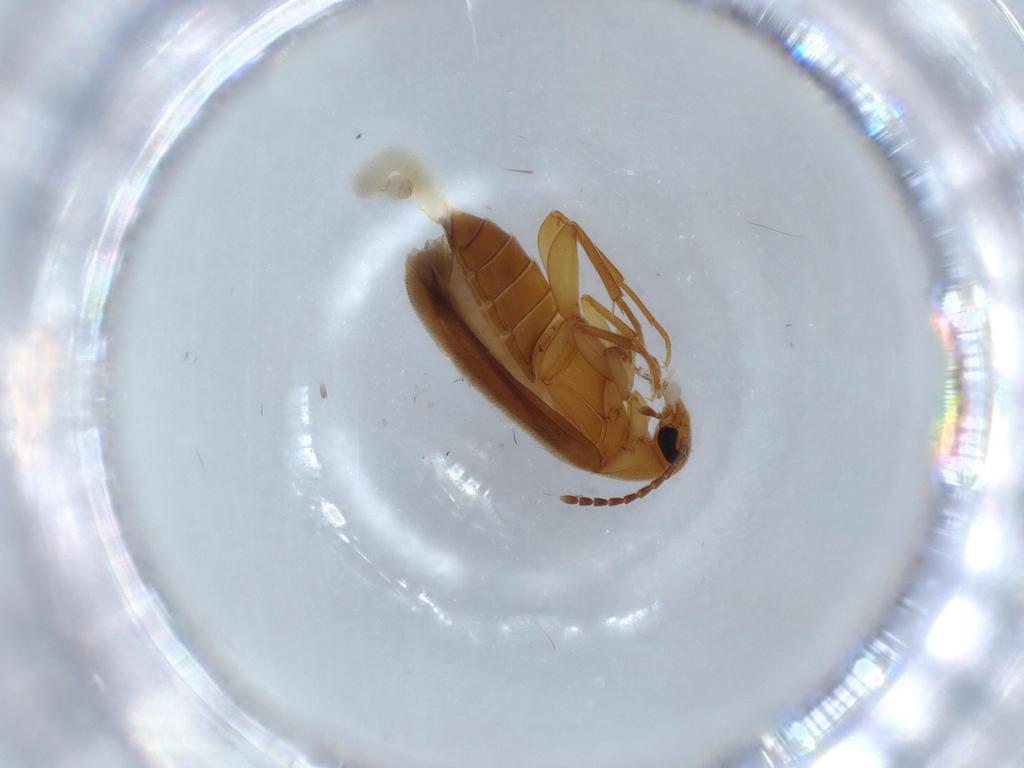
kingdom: Animalia
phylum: Arthropoda
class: Insecta
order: Coleoptera
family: Scraptiidae
